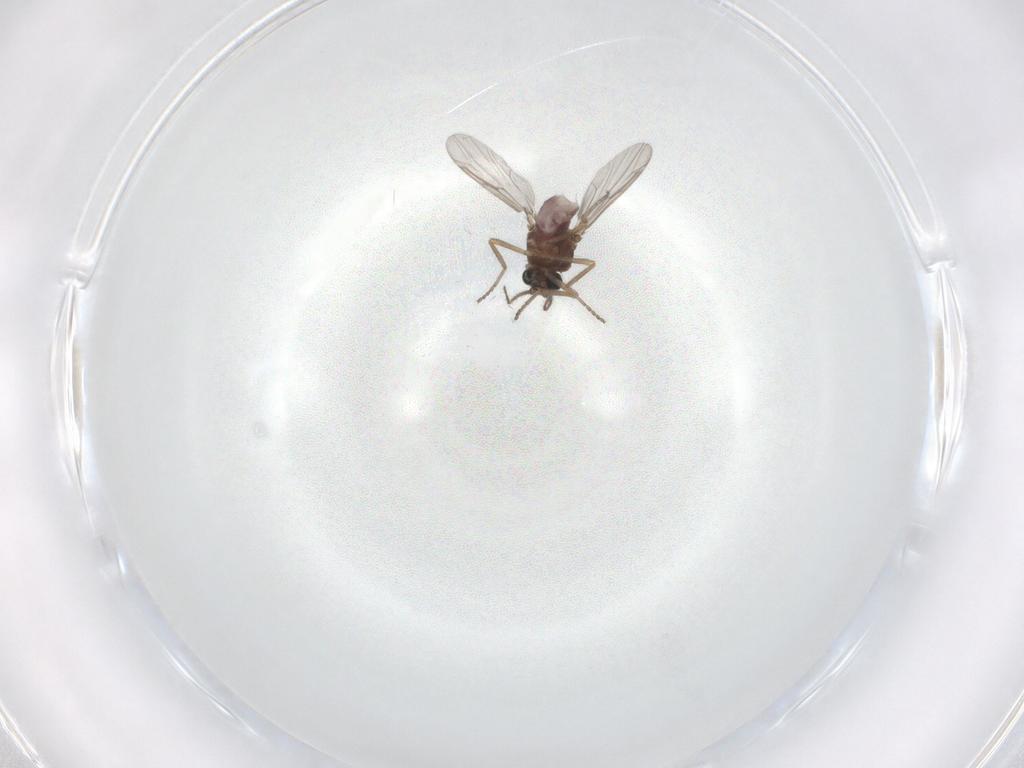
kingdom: Animalia
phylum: Arthropoda
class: Insecta
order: Diptera
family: Ceratopogonidae
